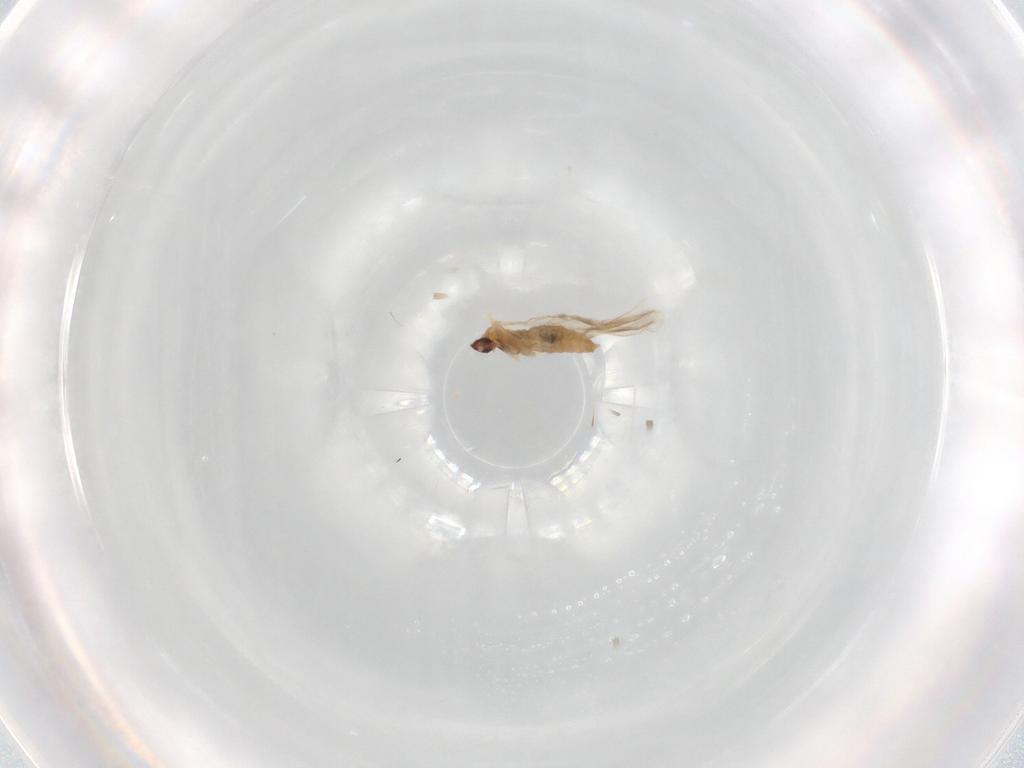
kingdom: Animalia
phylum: Arthropoda
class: Insecta
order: Diptera
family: Cecidomyiidae
